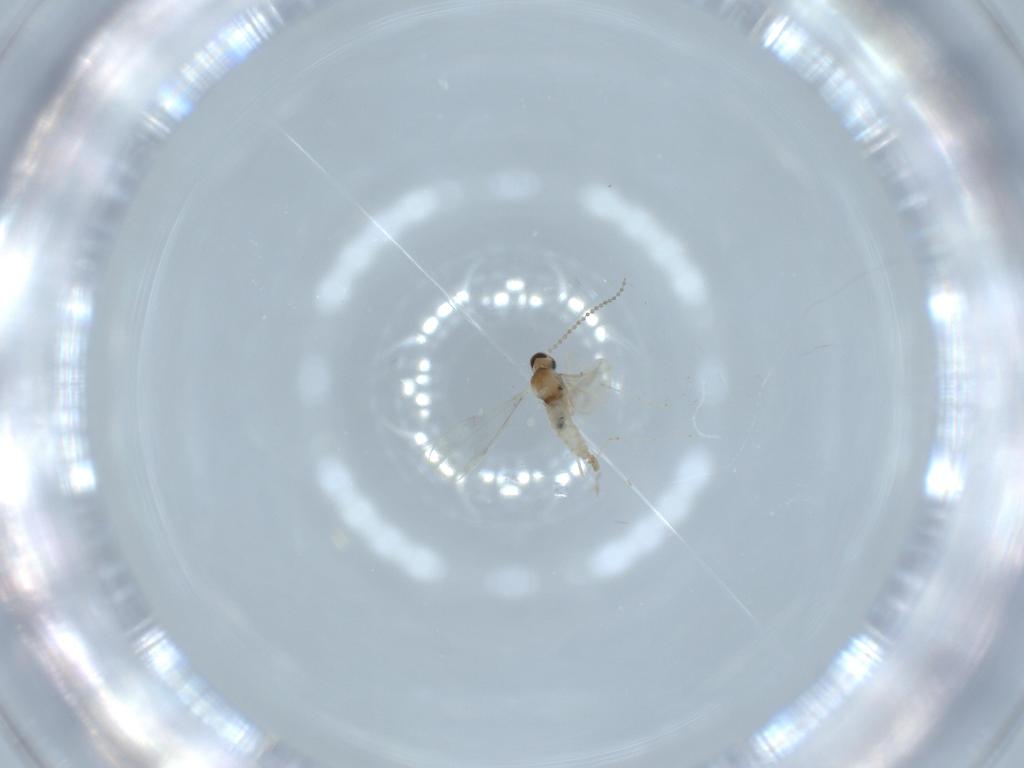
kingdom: Animalia
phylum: Arthropoda
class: Insecta
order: Diptera
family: Cecidomyiidae
